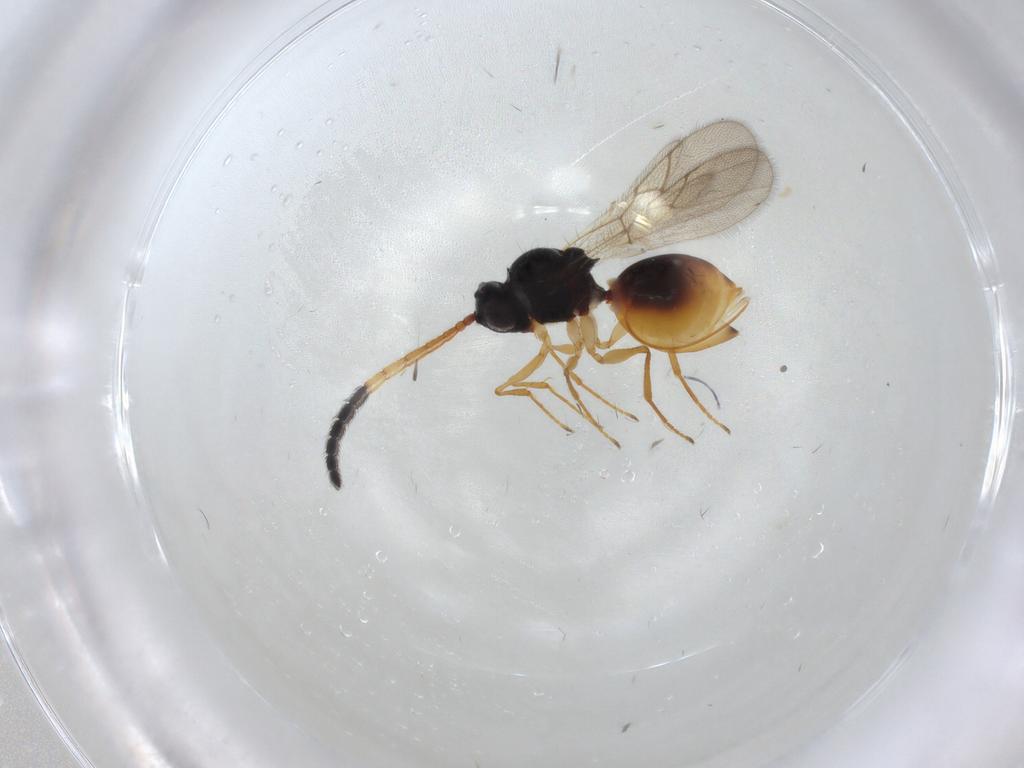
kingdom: Animalia
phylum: Arthropoda
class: Insecta
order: Hymenoptera
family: Figitidae
